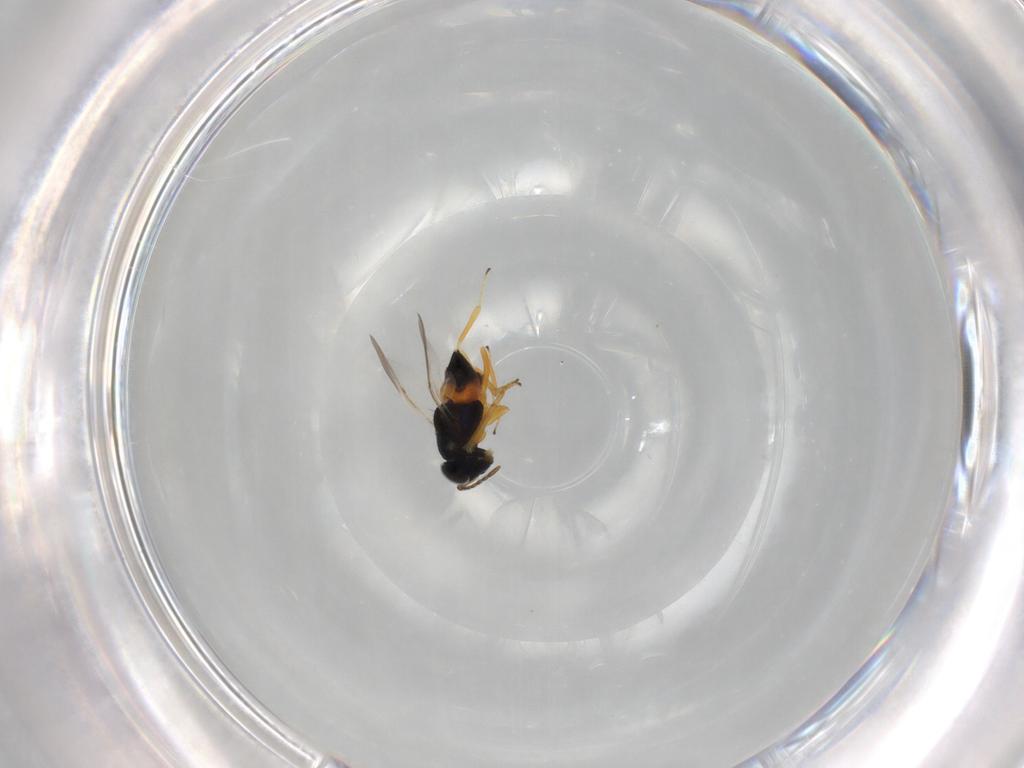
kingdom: Animalia
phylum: Arthropoda
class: Insecta
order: Hymenoptera
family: Encyrtidae
